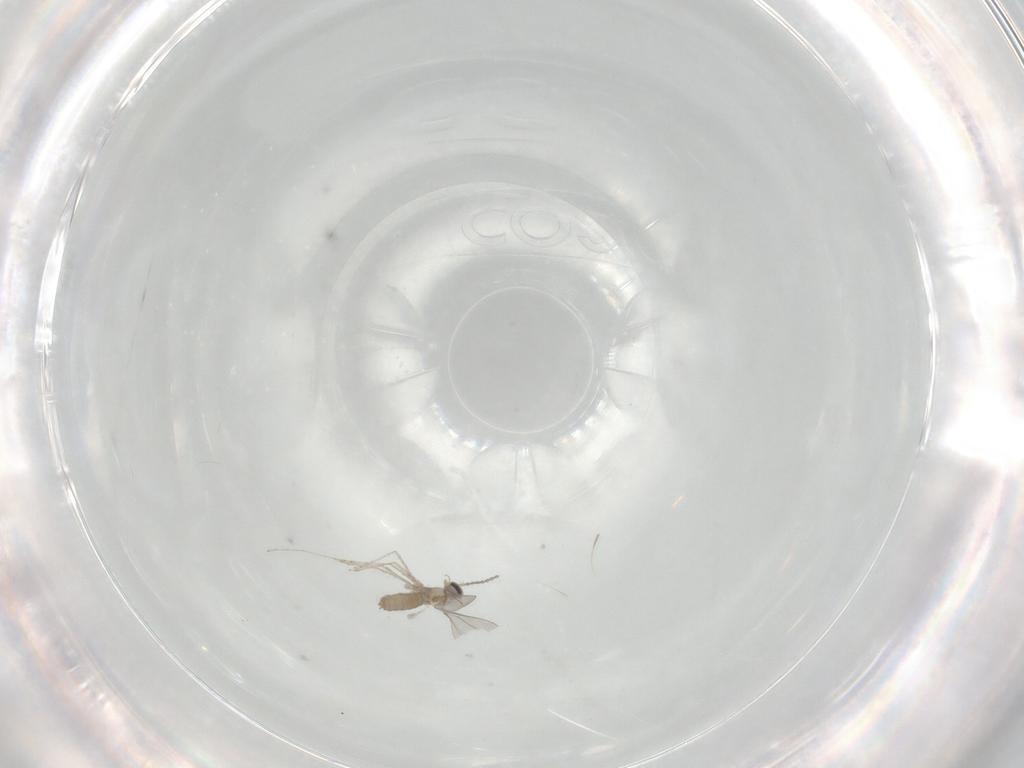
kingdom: Animalia
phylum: Arthropoda
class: Insecta
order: Diptera
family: Cecidomyiidae
